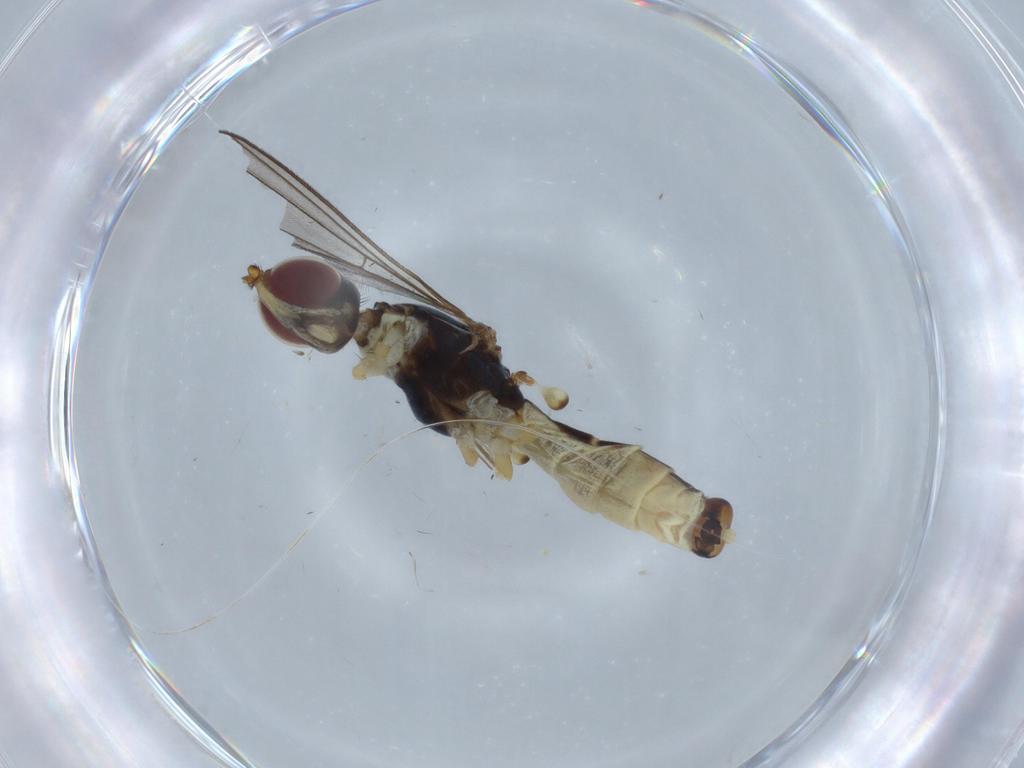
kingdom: Animalia
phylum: Arthropoda
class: Insecta
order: Diptera
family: Micropezidae
